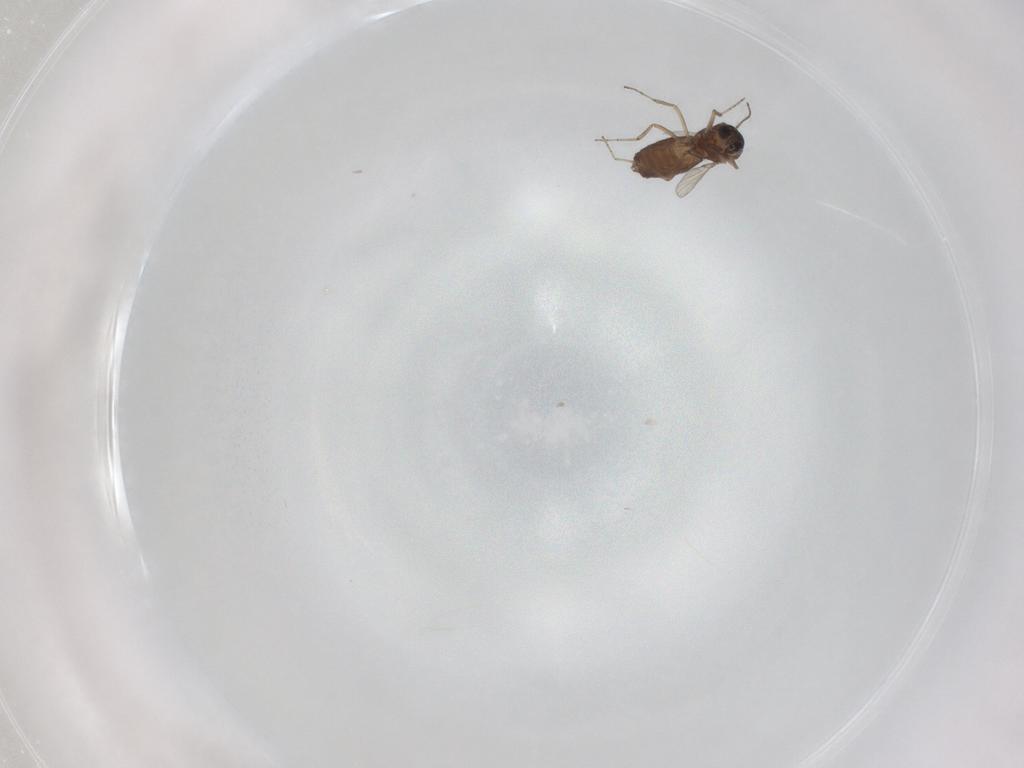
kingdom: Animalia
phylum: Arthropoda
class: Insecta
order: Diptera
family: Ceratopogonidae
